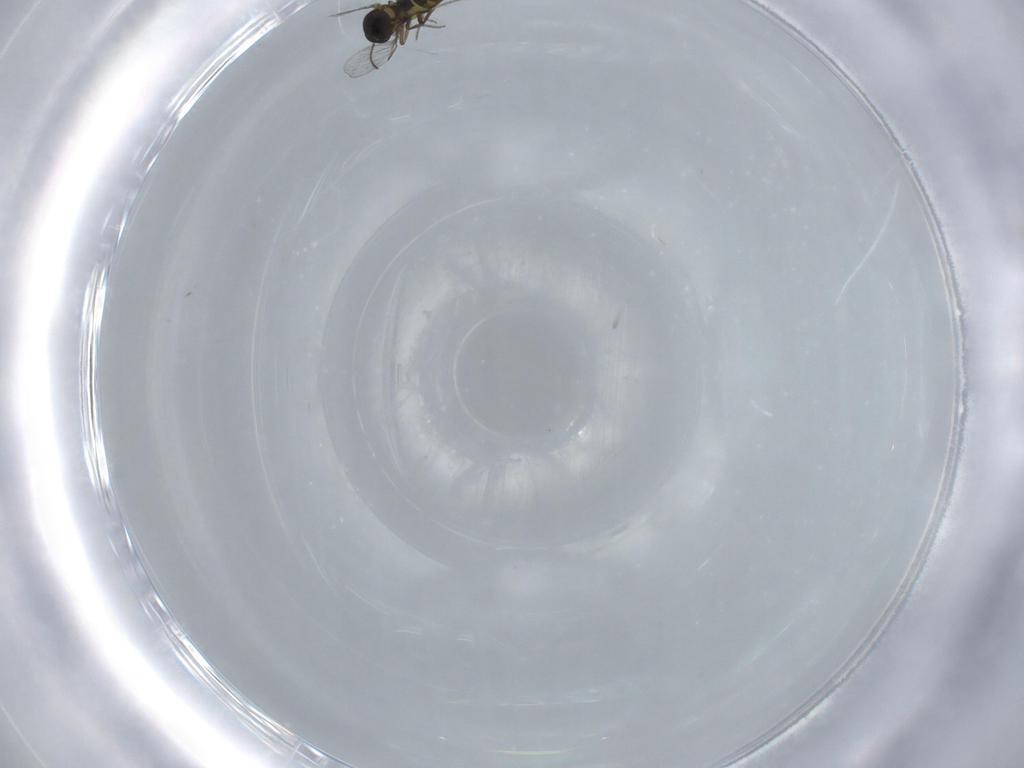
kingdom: Animalia
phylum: Arthropoda
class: Insecta
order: Diptera
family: Ceratopogonidae
